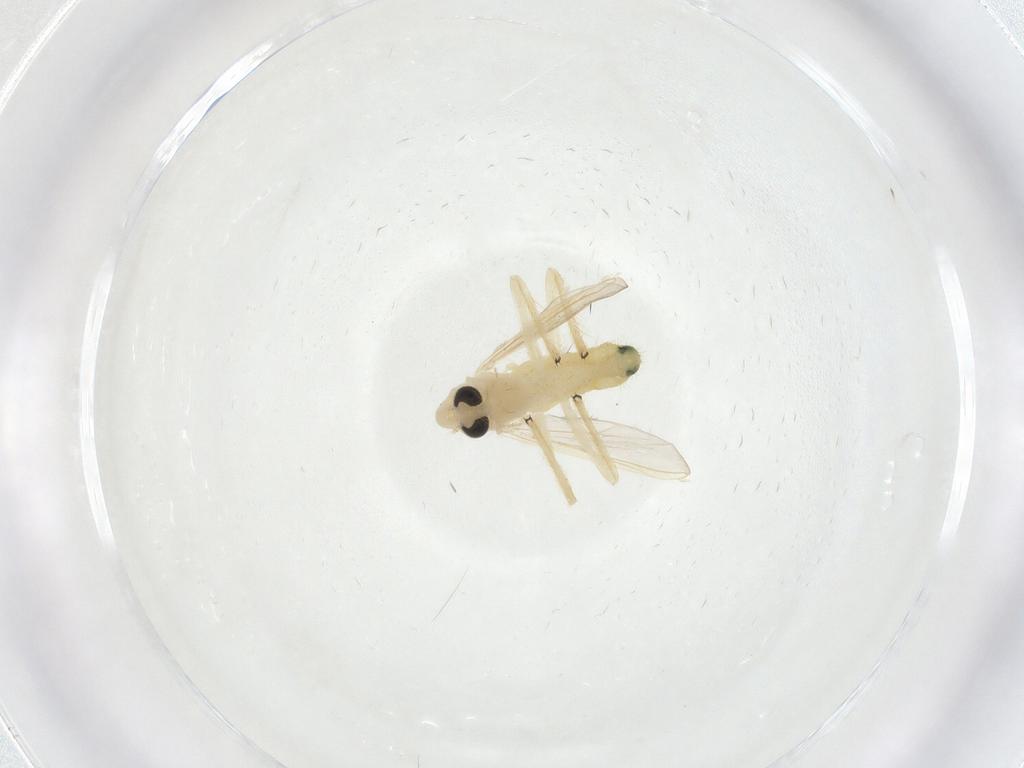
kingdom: Animalia
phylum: Arthropoda
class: Insecta
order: Diptera
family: Chironomidae
